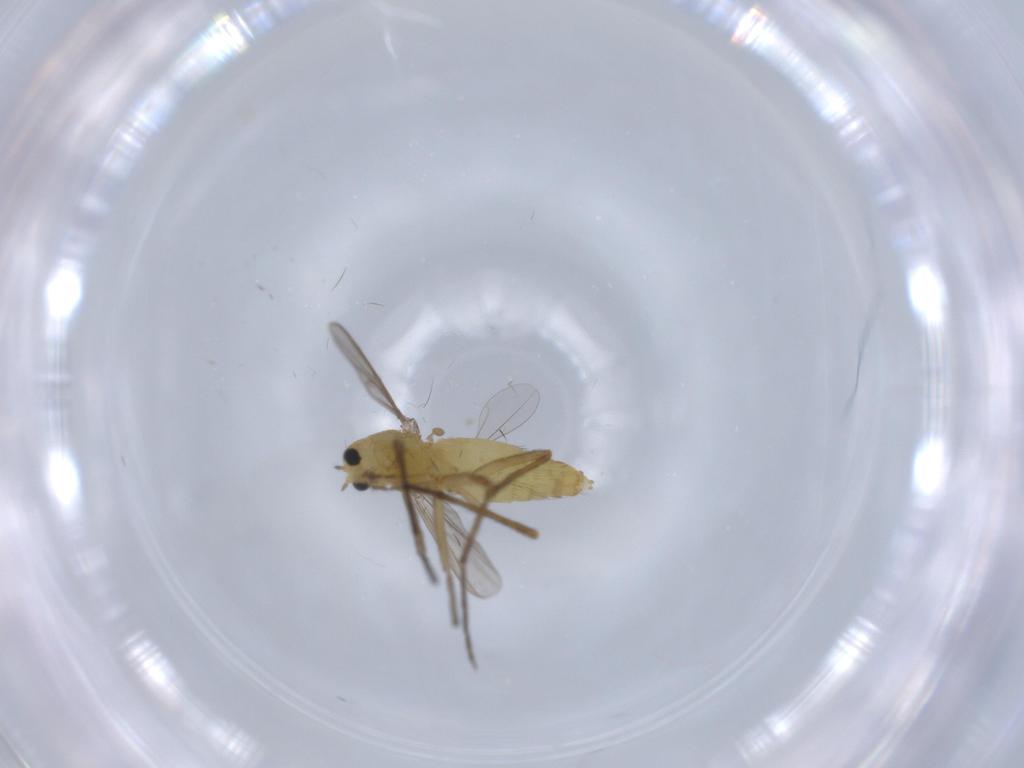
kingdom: Animalia
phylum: Arthropoda
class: Insecta
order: Diptera
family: Chironomidae
